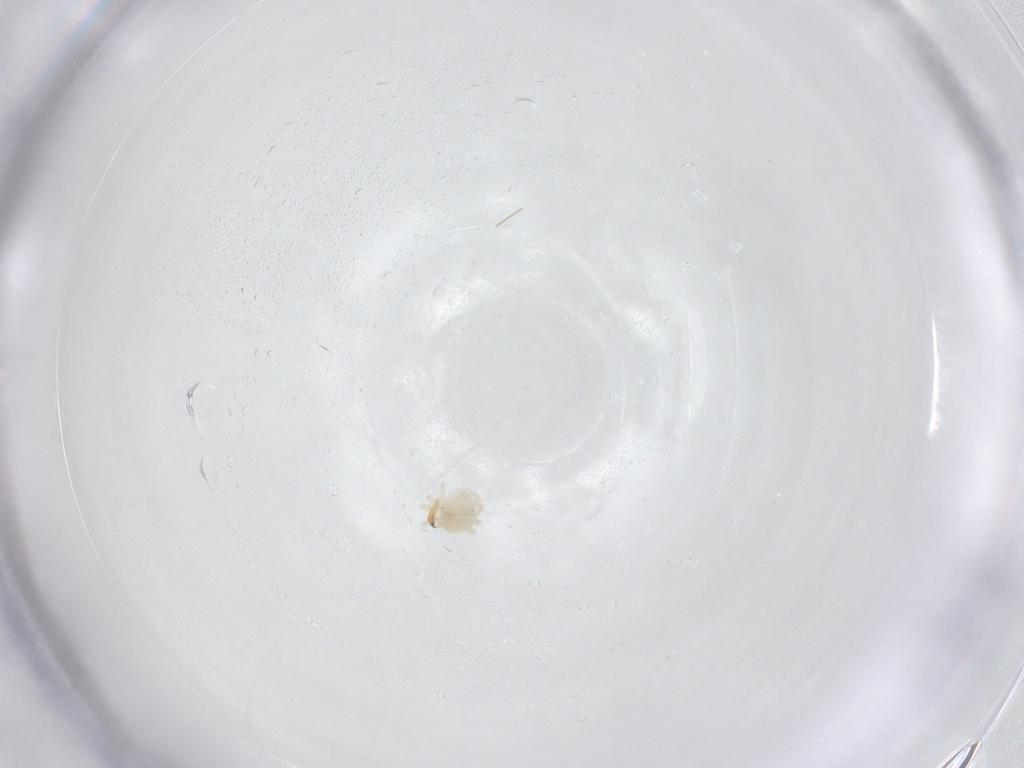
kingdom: Animalia
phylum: Arthropoda
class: Arachnida
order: Trombidiformes
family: Anystidae
